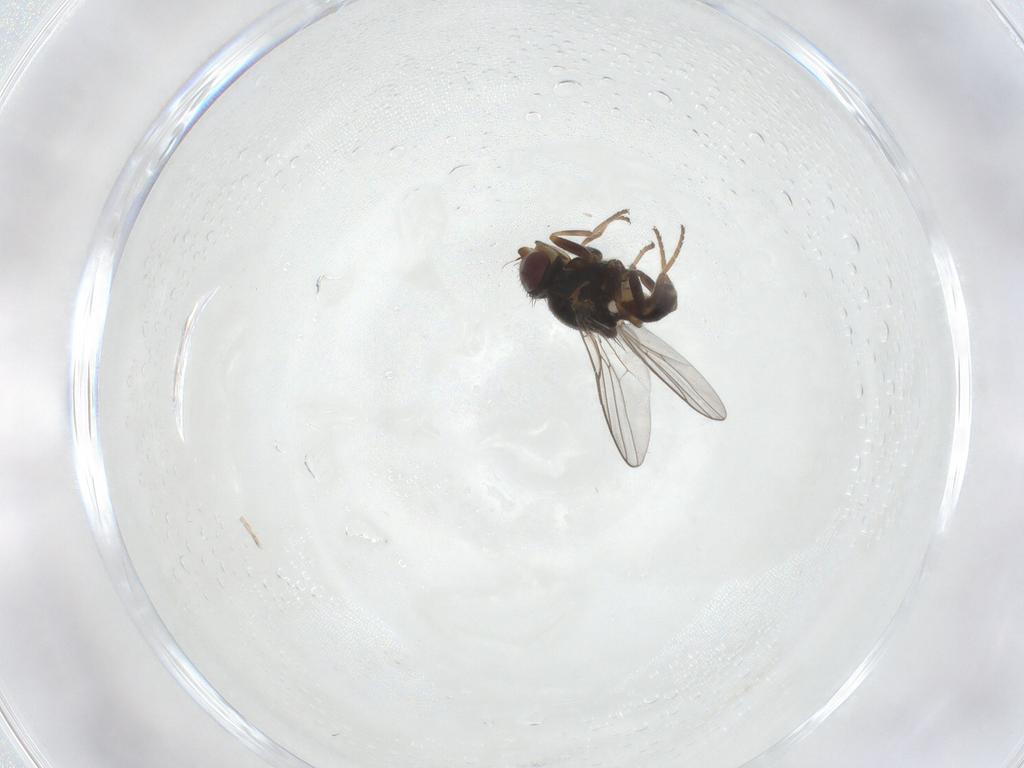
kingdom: Animalia
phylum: Arthropoda
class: Insecta
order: Diptera
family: Chloropidae
